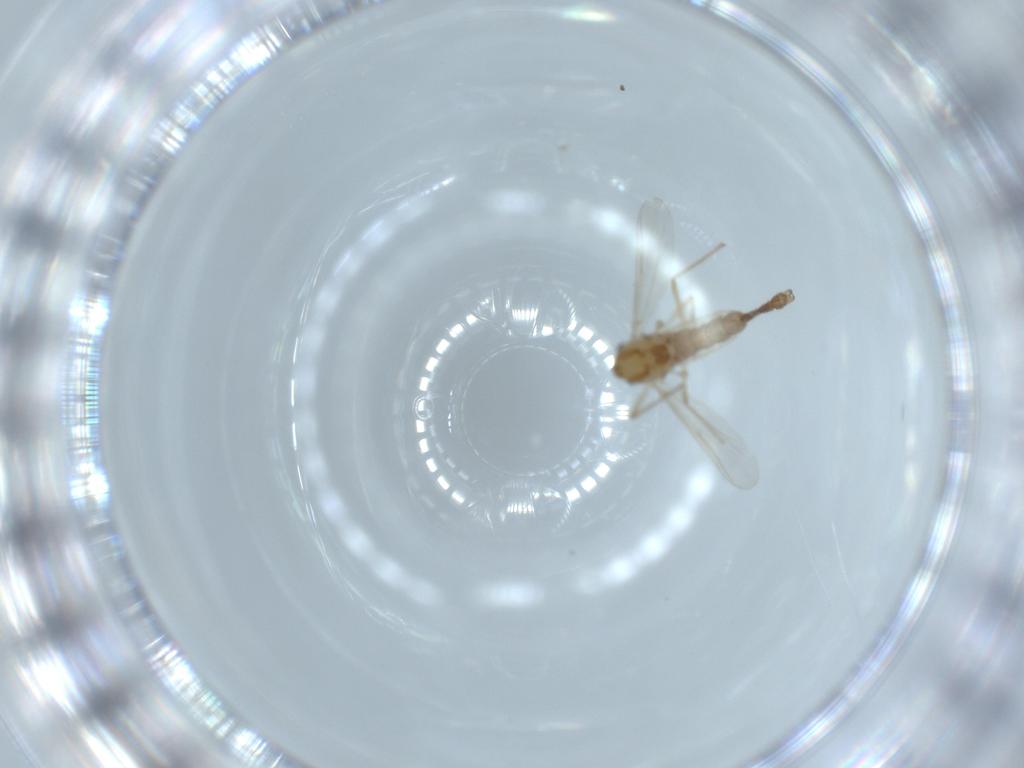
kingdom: Animalia
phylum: Arthropoda
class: Insecta
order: Diptera
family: Chironomidae
